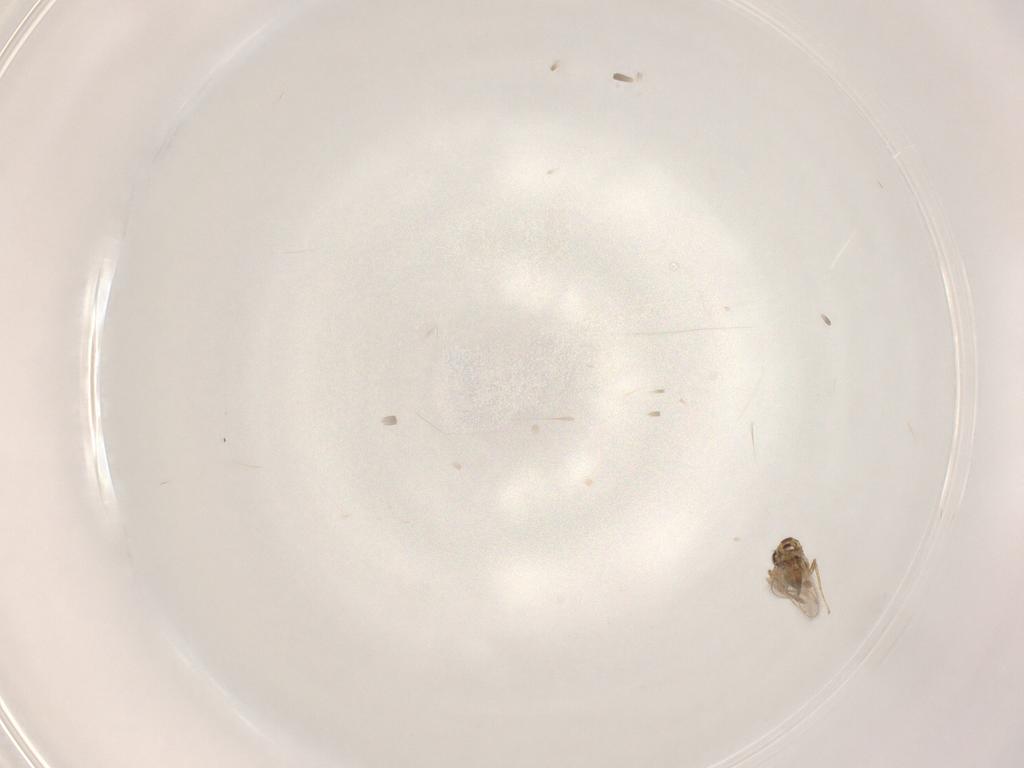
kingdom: Animalia
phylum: Arthropoda
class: Insecta
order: Hymenoptera
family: Mymaridae
